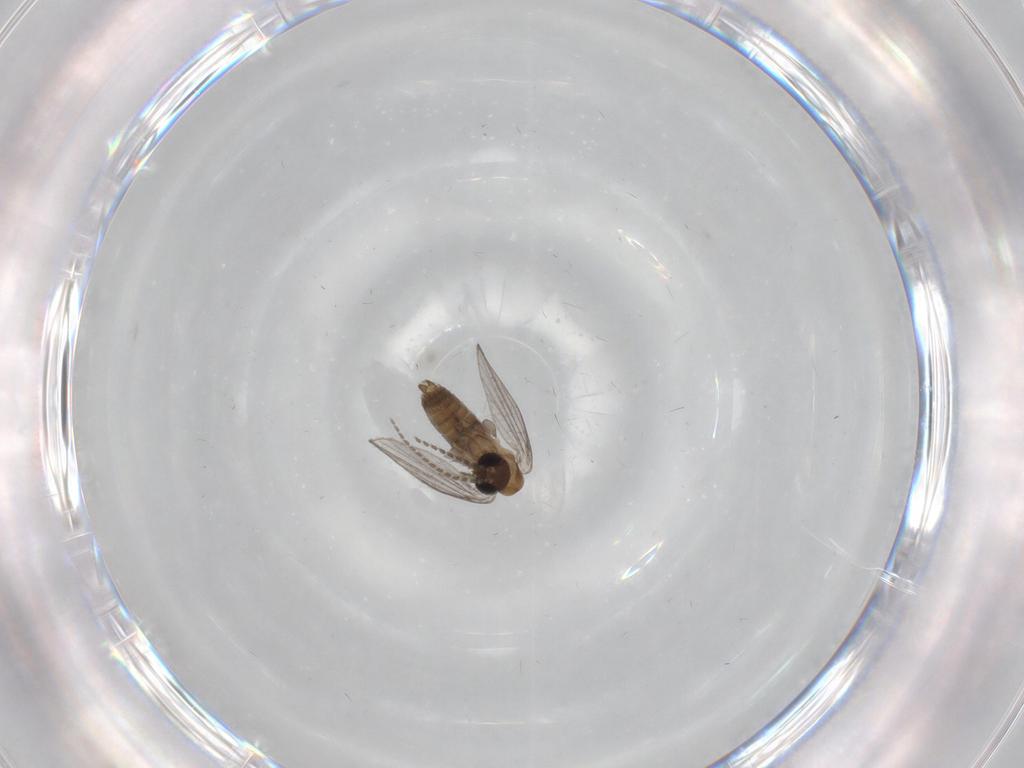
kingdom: Animalia
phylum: Arthropoda
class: Insecta
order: Diptera
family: Cecidomyiidae
